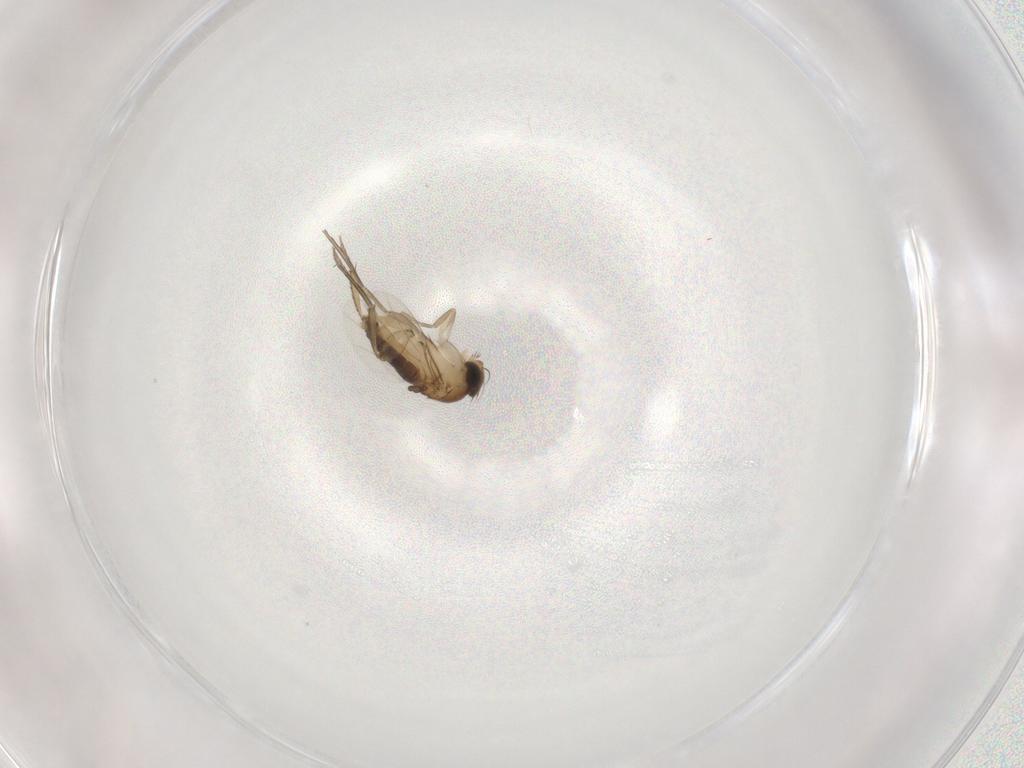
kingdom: Animalia
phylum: Arthropoda
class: Insecta
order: Diptera
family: Phoridae
